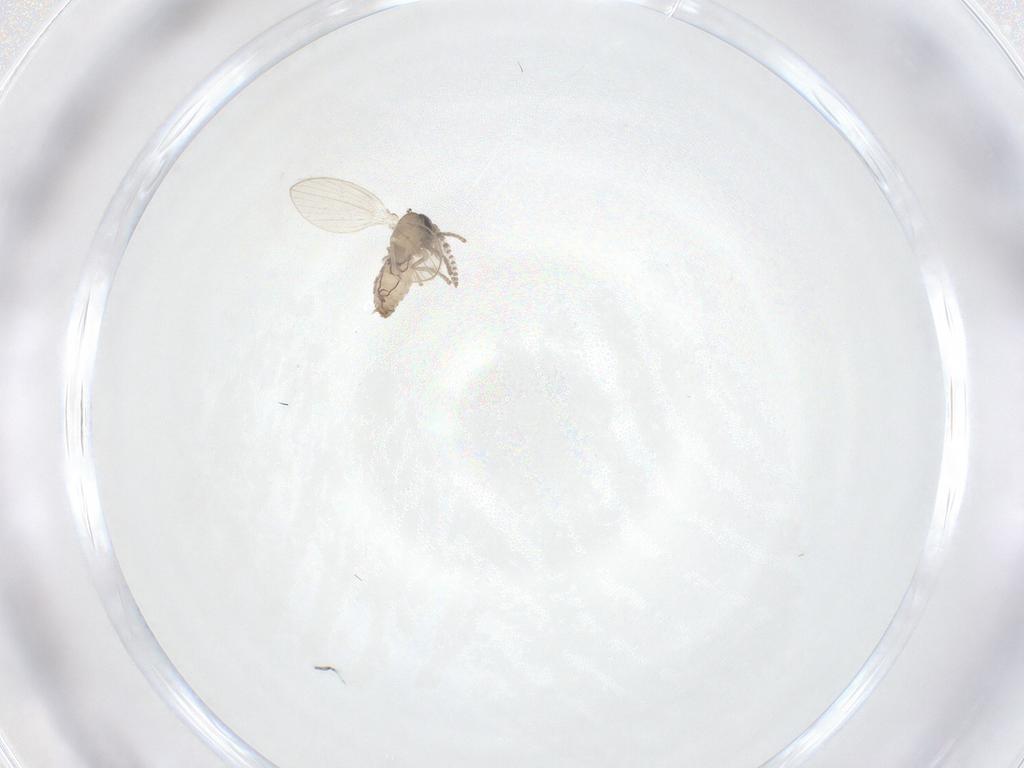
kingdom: Animalia
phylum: Arthropoda
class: Insecta
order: Diptera
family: Psychodidae
